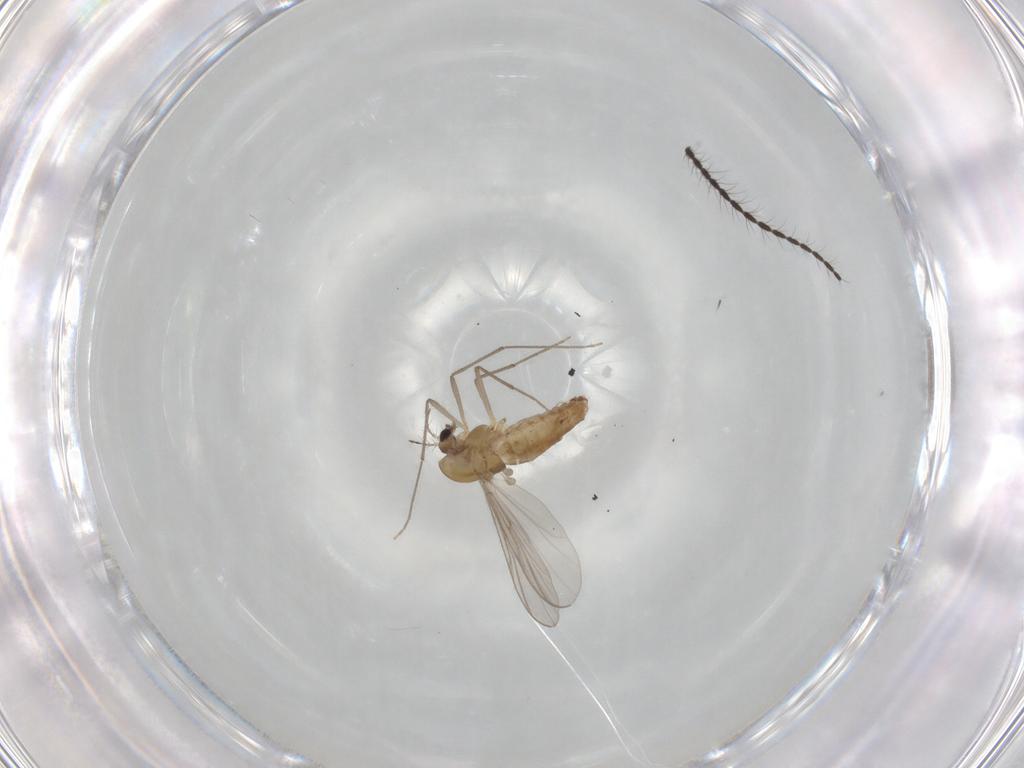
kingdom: Animalia
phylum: Arthropoda
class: Insecta
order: Diptera
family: Chironomidae
